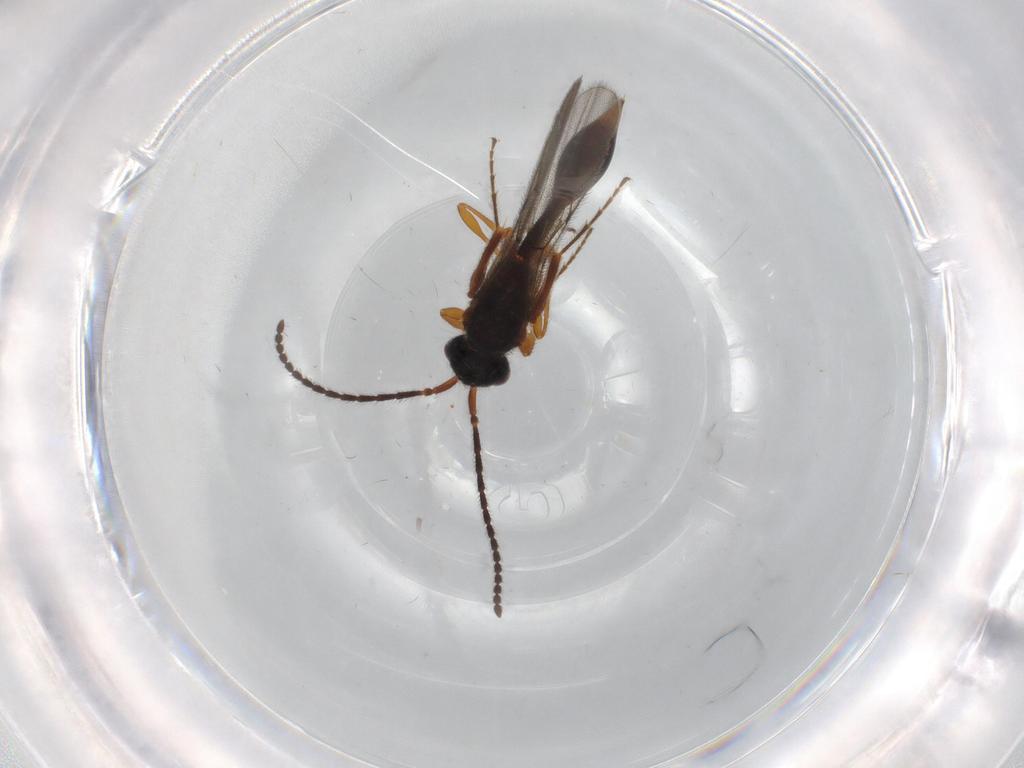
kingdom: Animalia
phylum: Arthropoda
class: Insecta
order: Hymenoptera
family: Diapriidae
